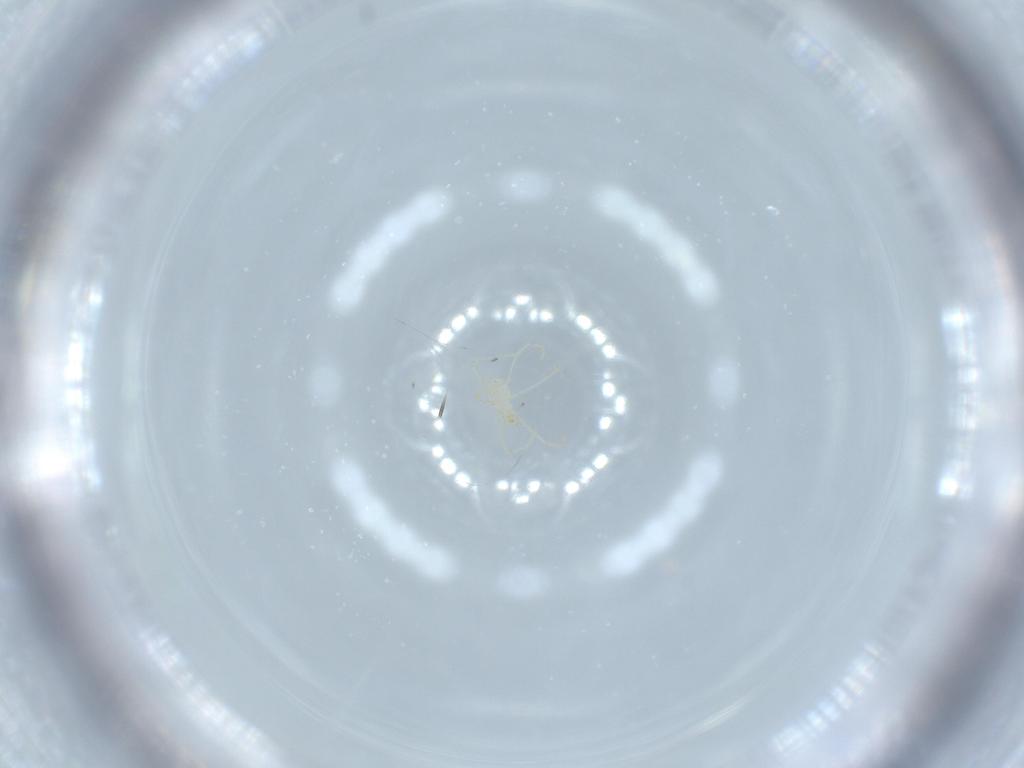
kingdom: Animalia
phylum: Arthropoda
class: Arachnida
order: Trombidiformes
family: Erythraeidae
